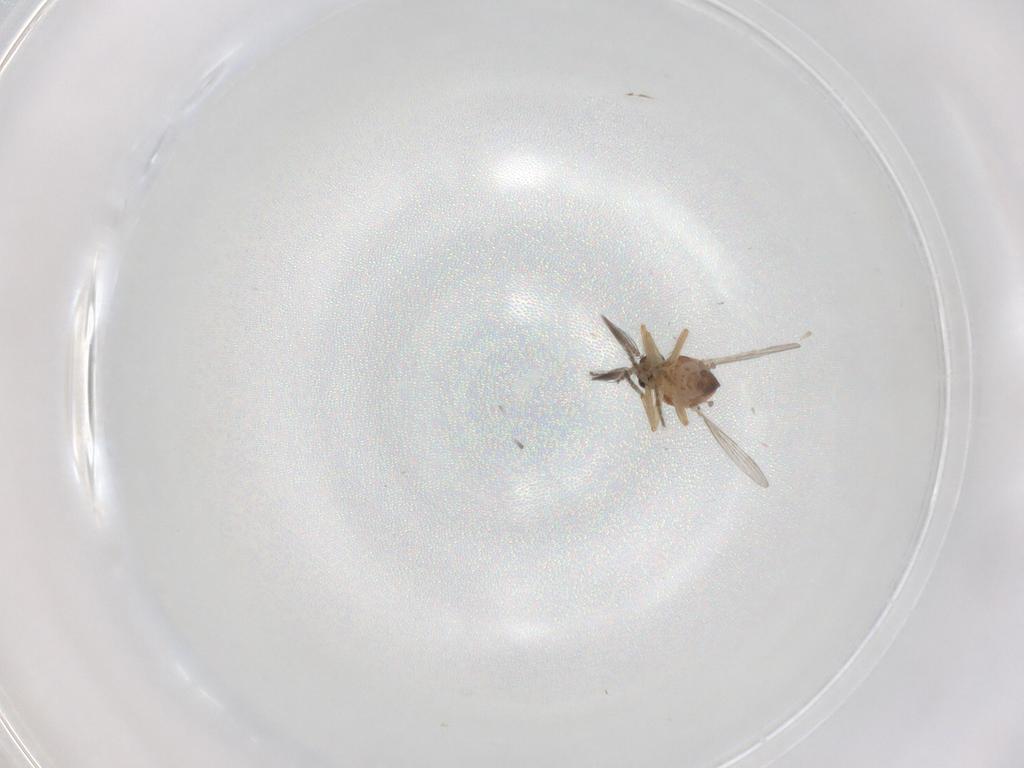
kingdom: Animalia
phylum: Arthropoda
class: Insecta
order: Diptera
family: Ceratopogonidae
